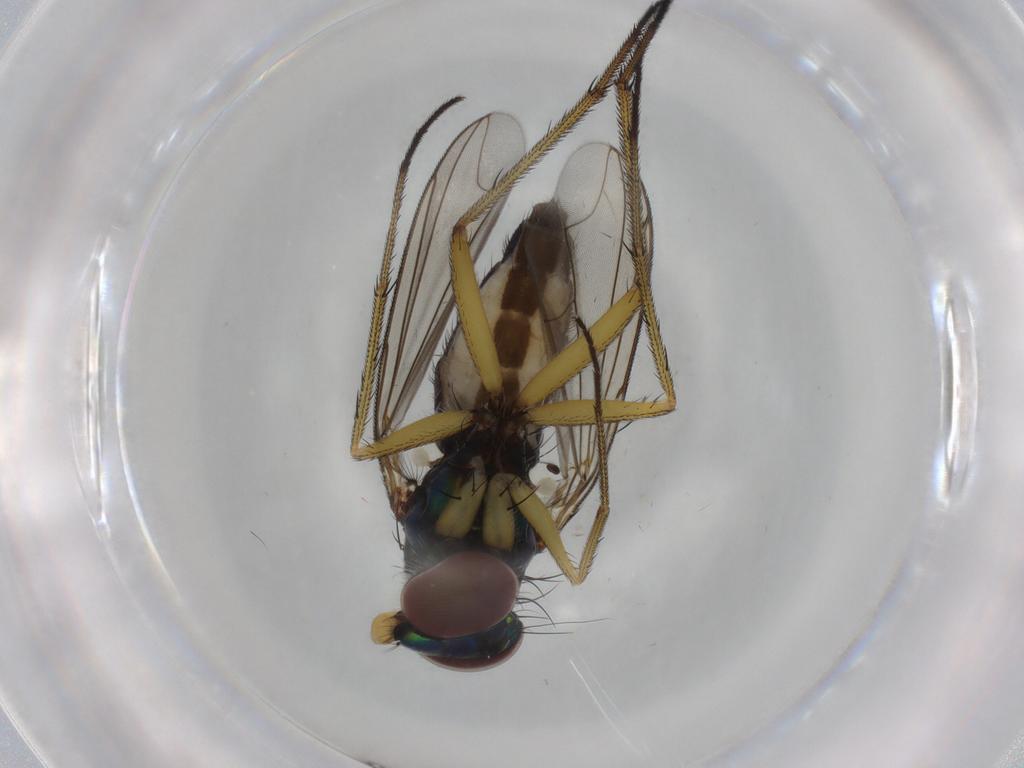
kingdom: Animalia
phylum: Arthropoda
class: Insecta
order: Diptera
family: Dolichopodidae
